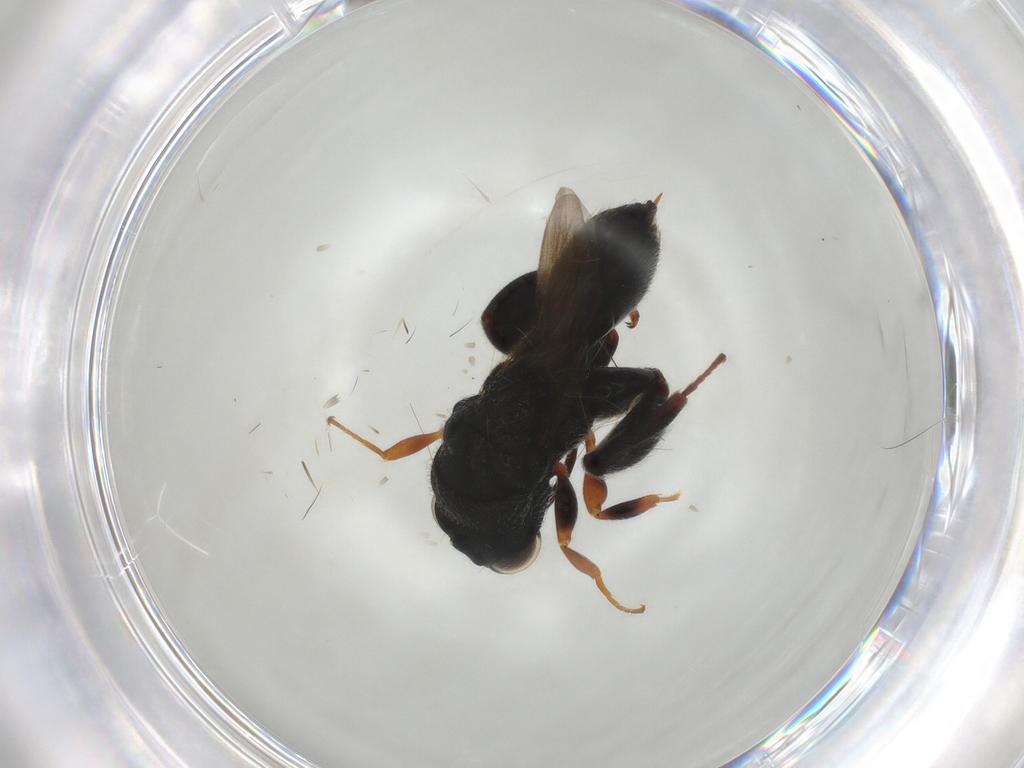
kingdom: Animalia
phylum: Arthropoda
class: Insecta
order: Hymenoptera
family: Chalcididae
